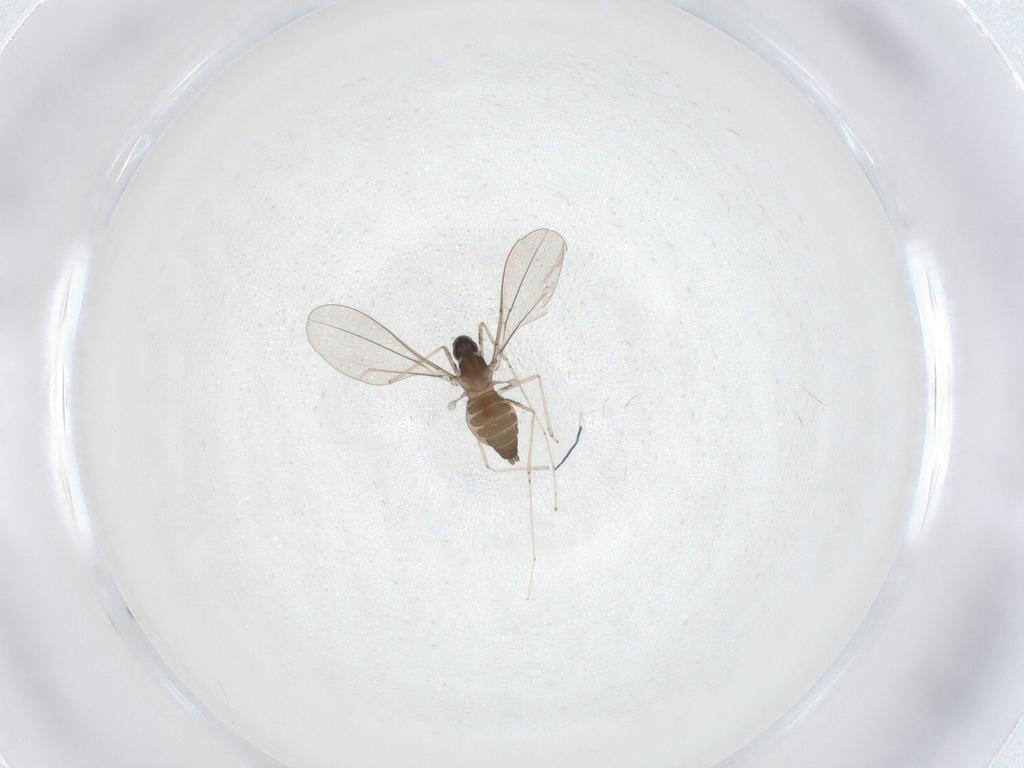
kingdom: Animalia
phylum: Arthropoda
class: Insecta
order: Diptera
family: Cecidomyiidae
